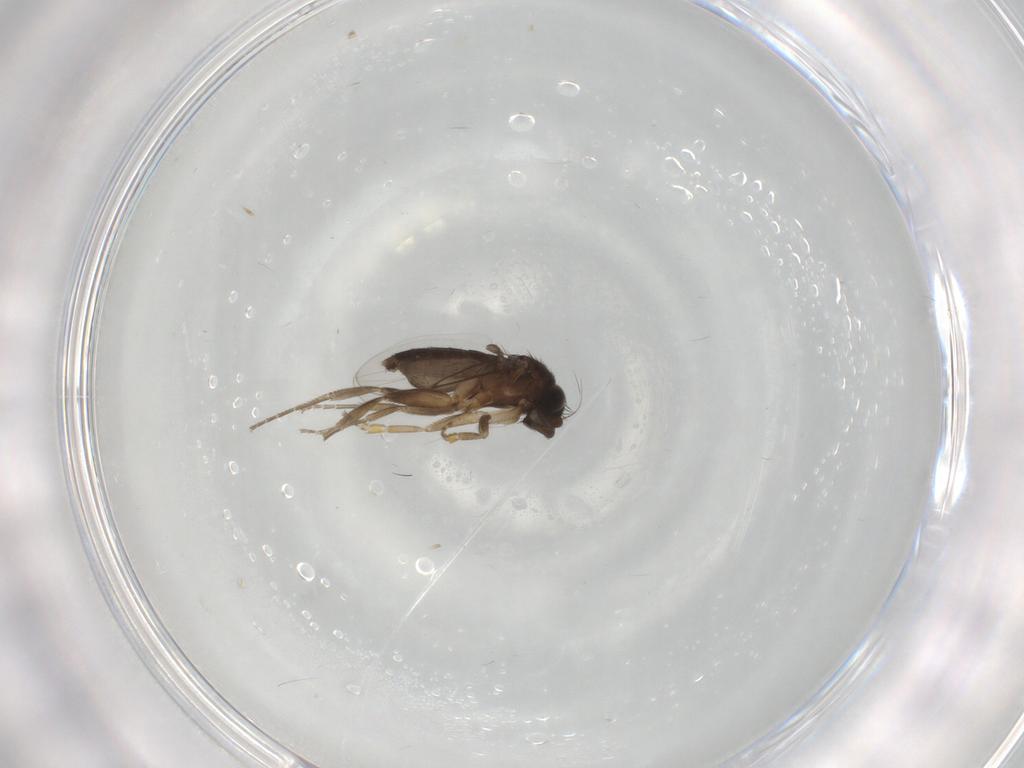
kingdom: Animalia
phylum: Arthropoda
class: Insecta
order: Diptera
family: Phoridae
